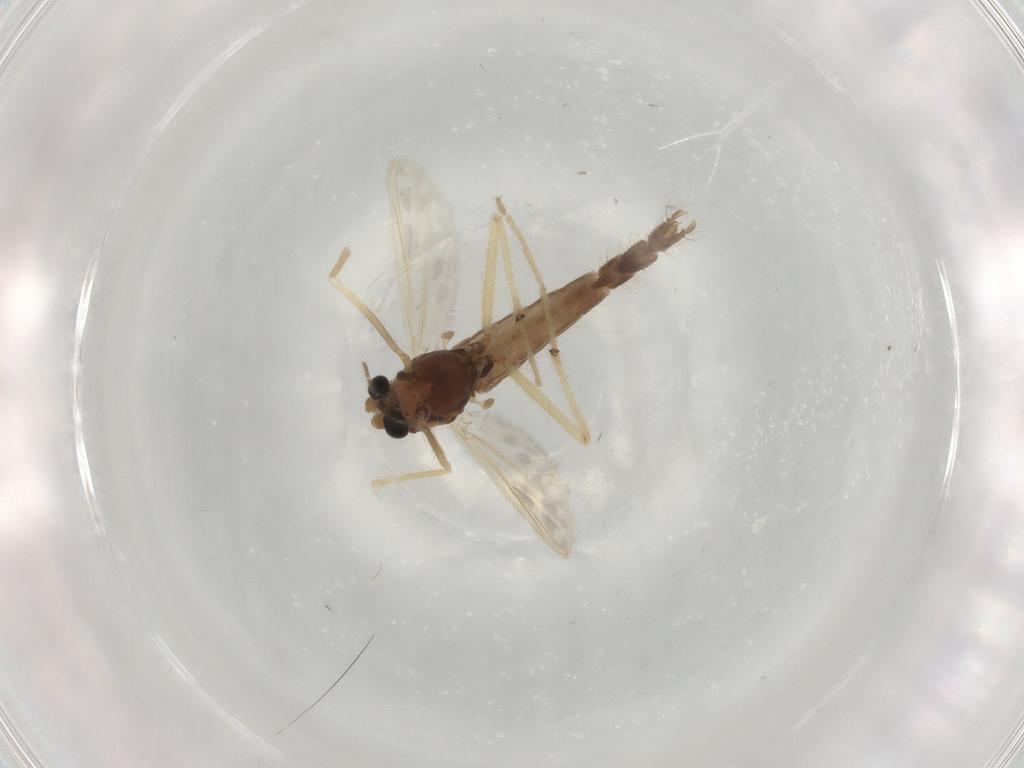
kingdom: Animalia
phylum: Arthropoda
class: Insecta
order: Diptera
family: Chironomidae
